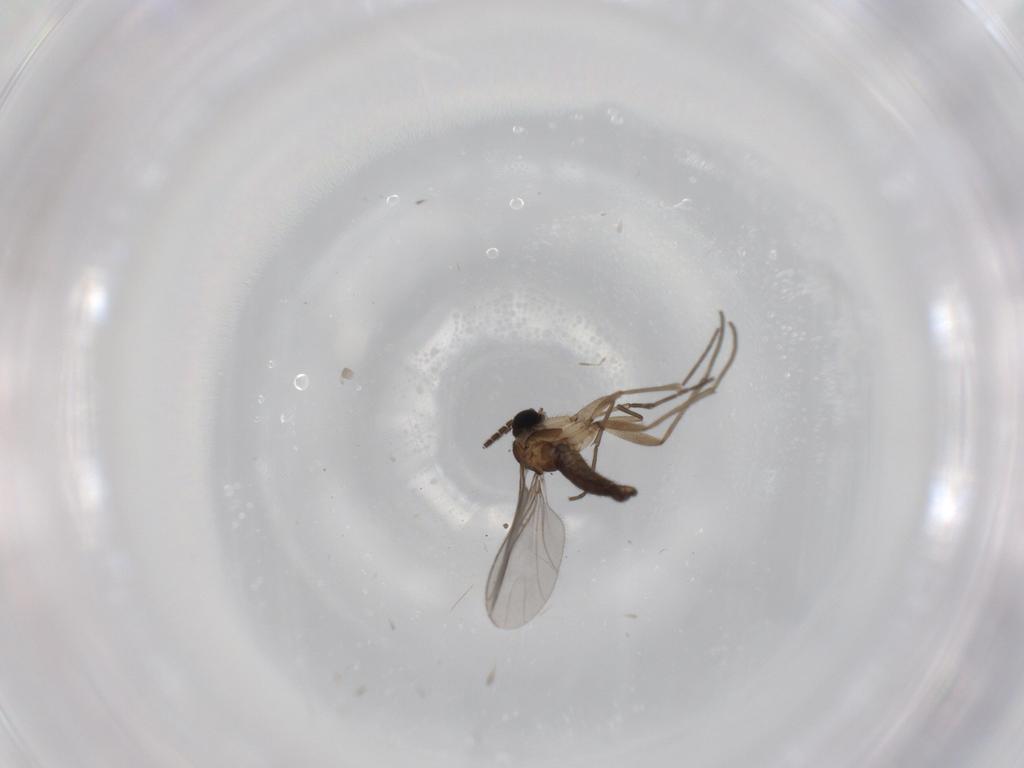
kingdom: Animalia
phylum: Arthropoda
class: Insecta
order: Diptera
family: Sciaridae
